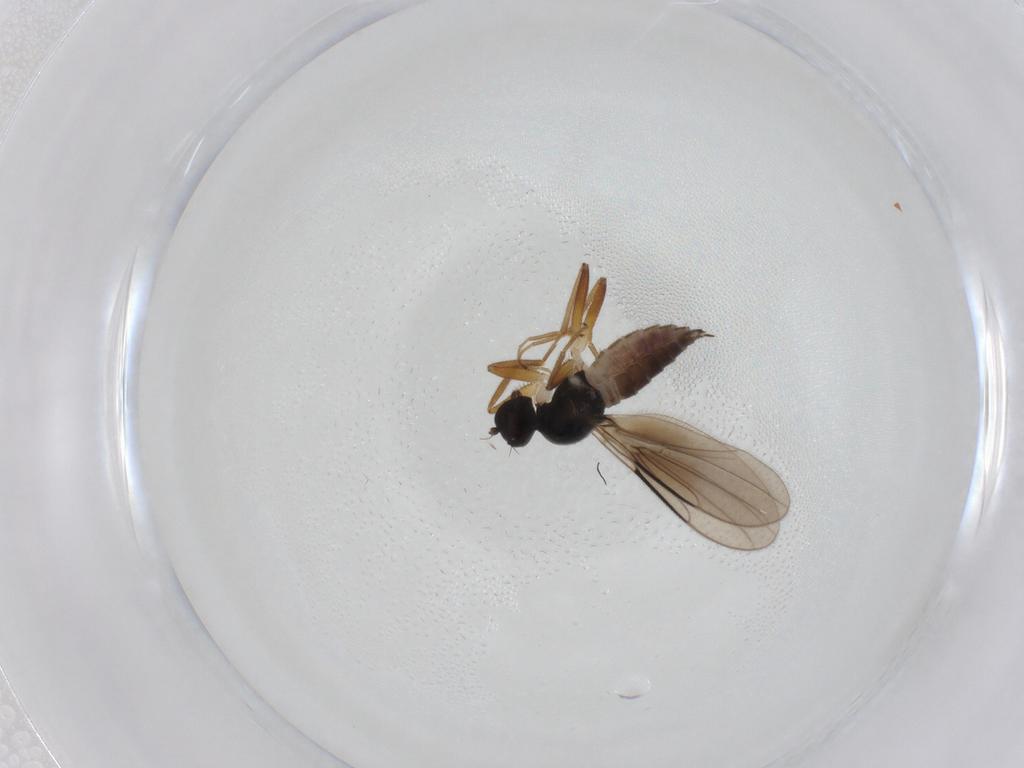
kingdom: Animalia
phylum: Arthropoda
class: Insecta
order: Diptera
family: Hybotidae
